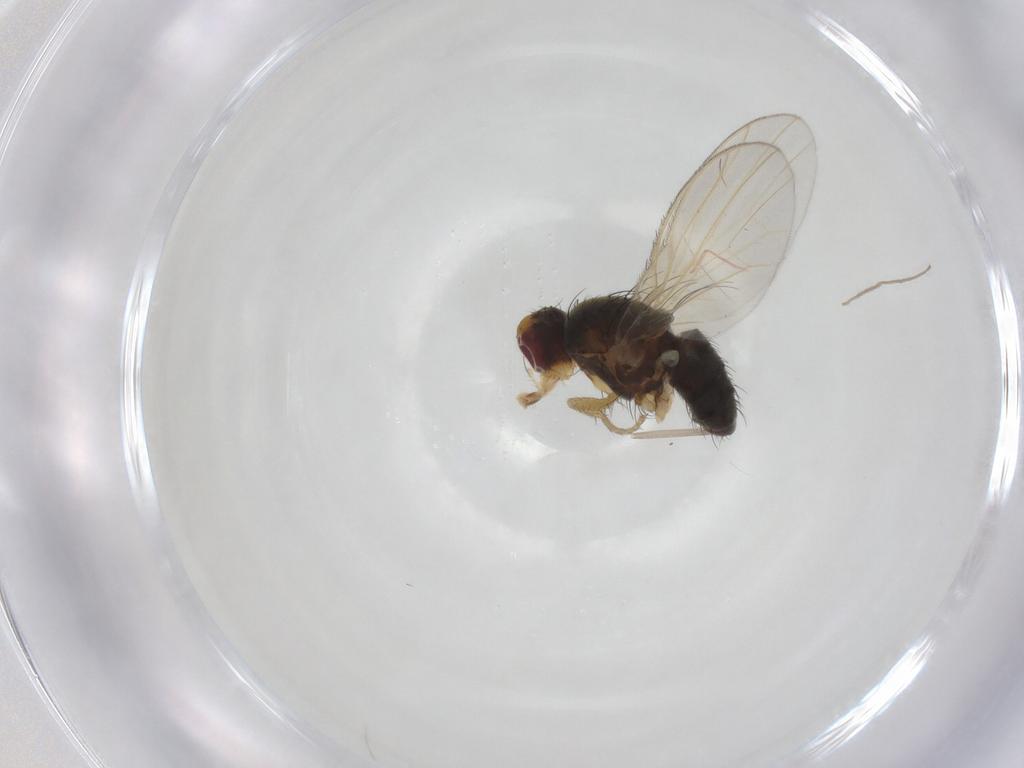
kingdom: Animalia
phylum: Arthropoda
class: Insecta
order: Diptera
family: Heleomyzidae
